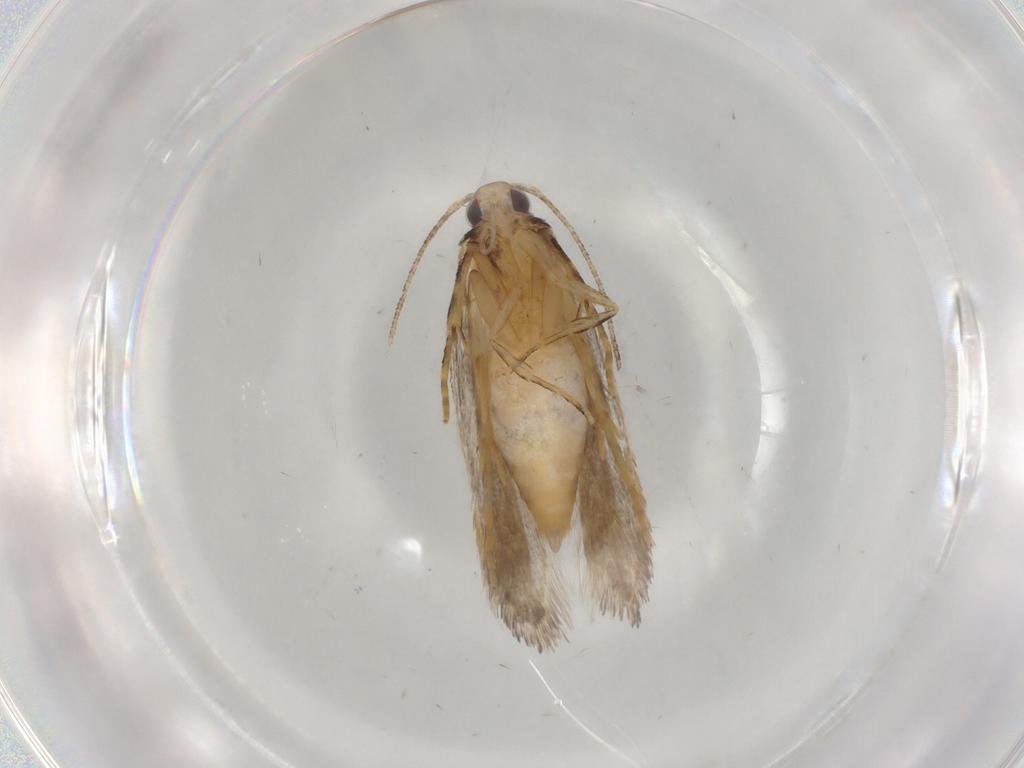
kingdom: Animalia
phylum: Arthropoda
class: Insecta
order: Lepidoptera
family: Autostichidae
